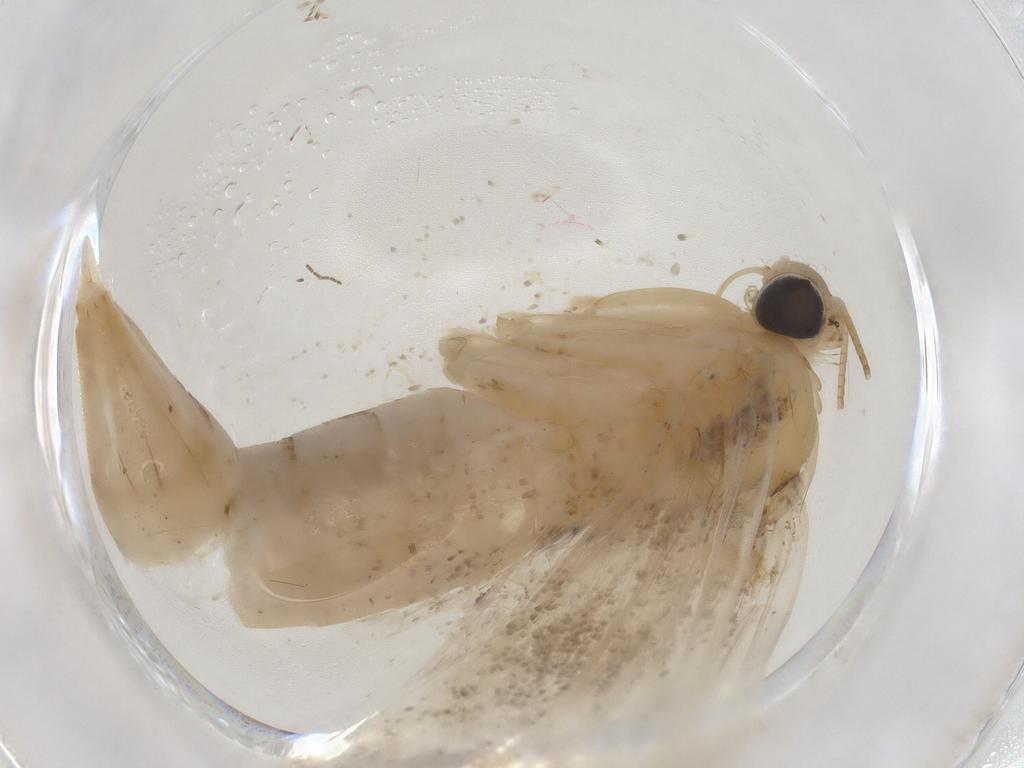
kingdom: Animalia
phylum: Arthropoda
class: Insecta
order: Lepidoptera
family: Crambidae
